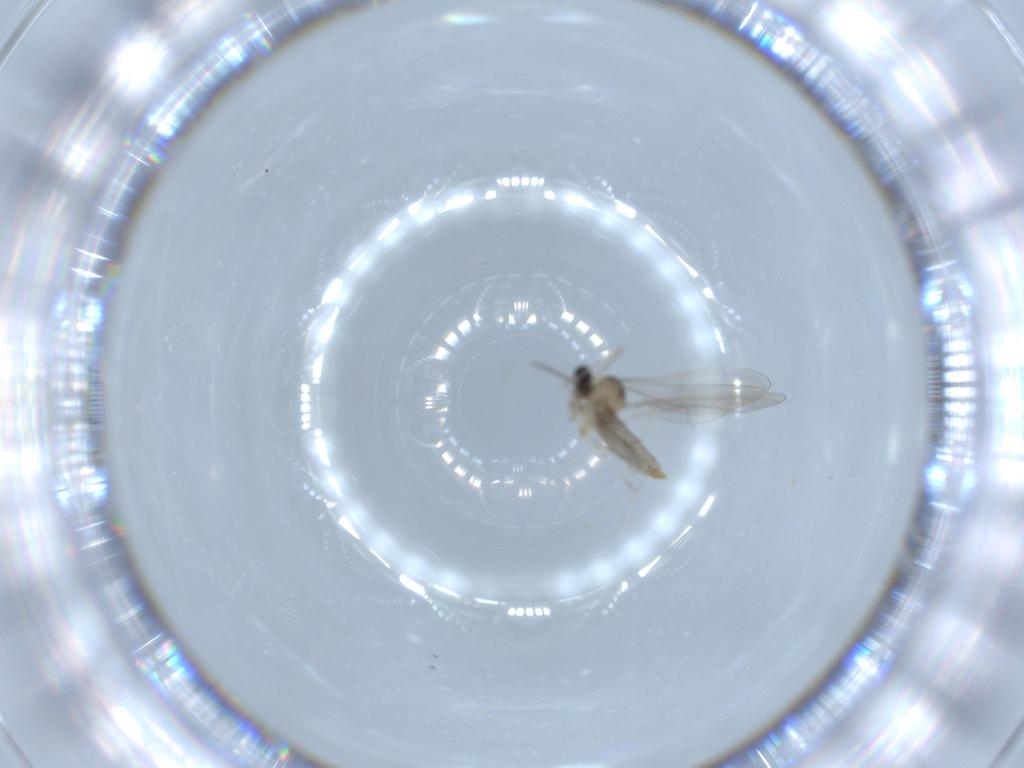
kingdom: Animalia
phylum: Arthropoda
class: Insecta
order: Diptera
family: Cecidomyiidae
